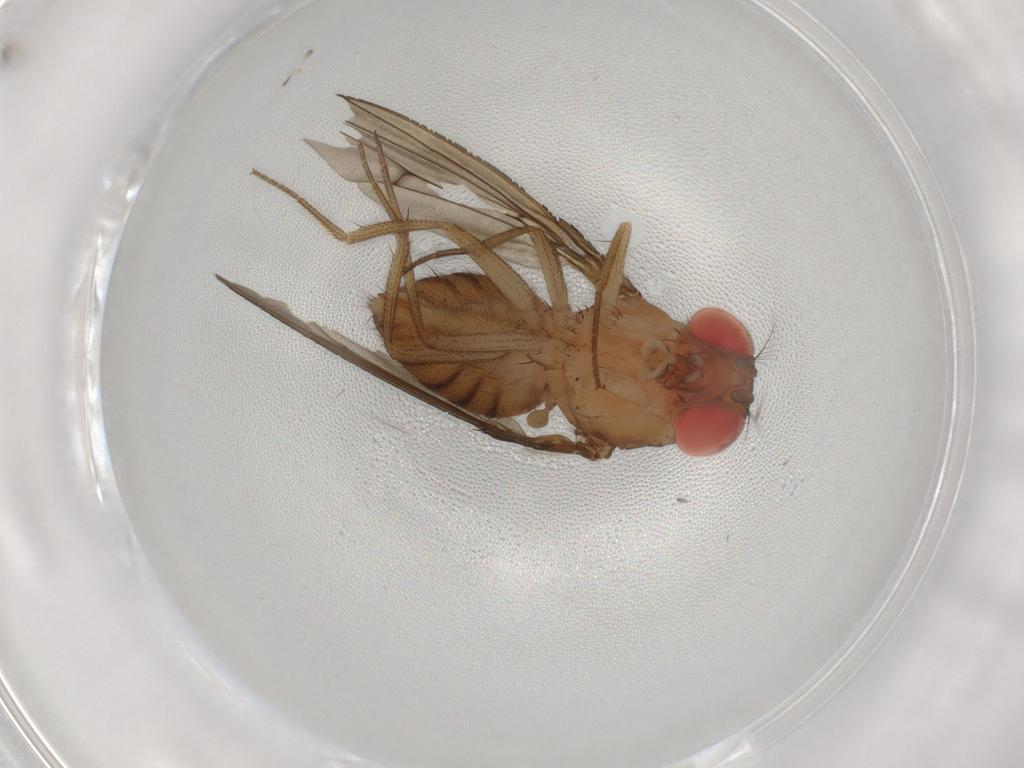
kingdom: Animalia
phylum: Arthropoda
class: Insecta
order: Diptera
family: Drosophilidae
